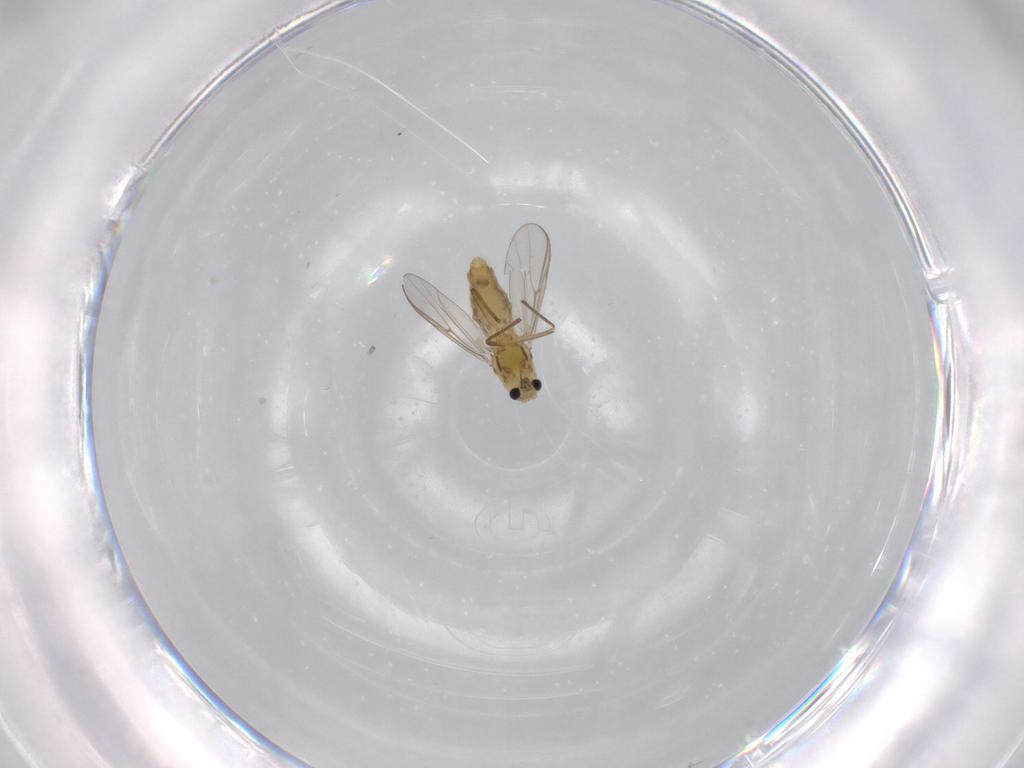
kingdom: Animalia
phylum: Arthropoda
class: Insecta
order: Diptera
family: Chironomidae
